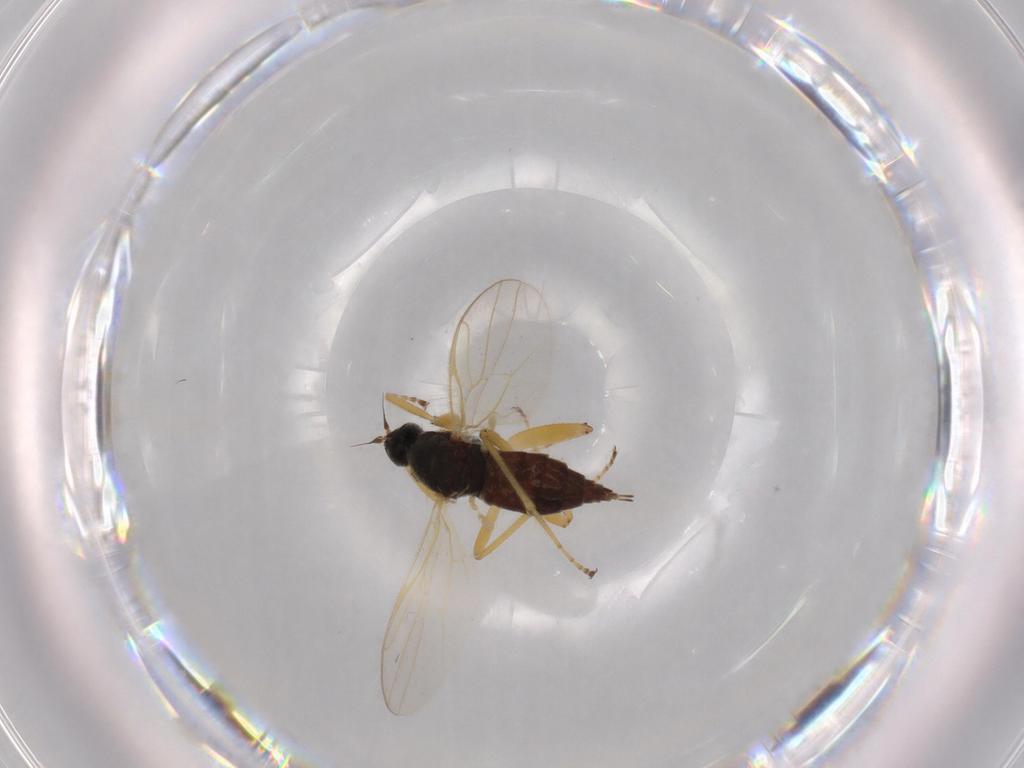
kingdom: Animalia
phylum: Arthropoda
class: Insecta
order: Diptera
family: Hybotidae
